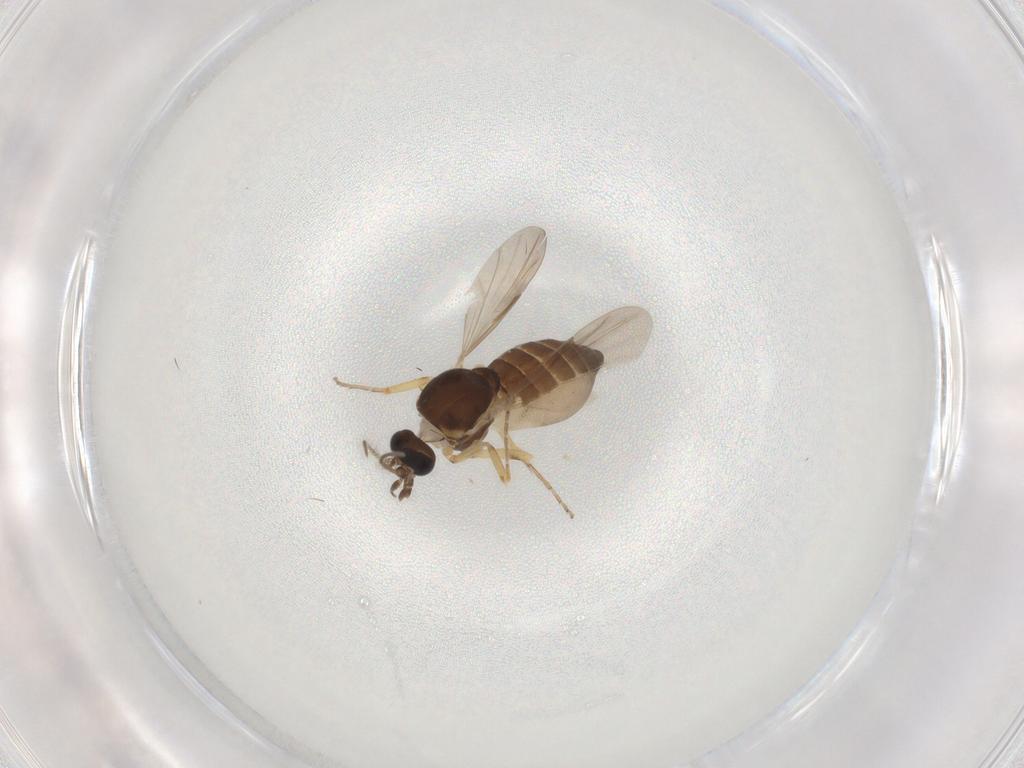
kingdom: Animalia
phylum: Arthropoda
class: Insecta
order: Diptera
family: Ceratopogonidae
